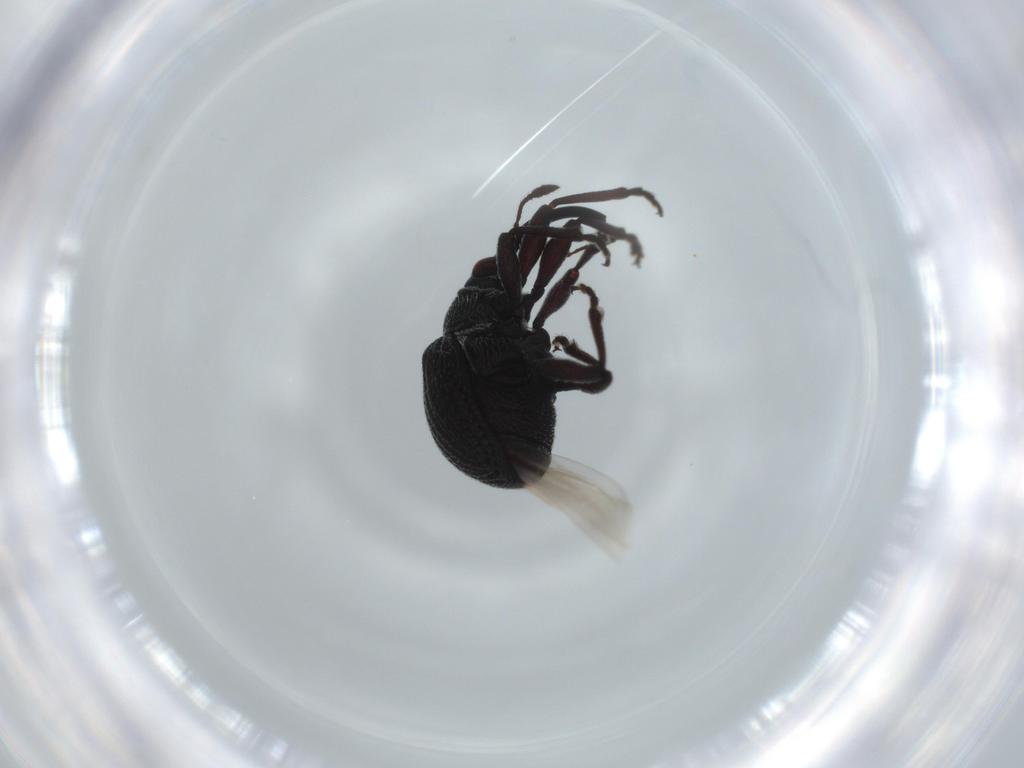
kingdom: Animalia
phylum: Arthropoda
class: Insecta
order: Coleoptera
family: Brentidae
